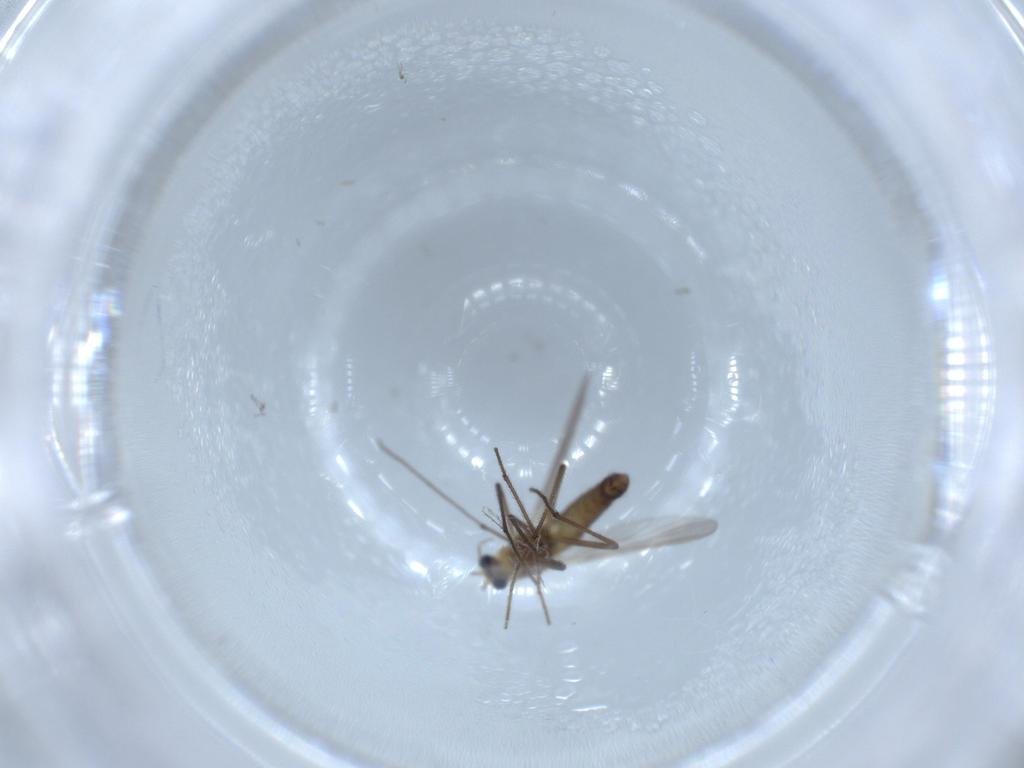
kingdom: Animalia
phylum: Arthropoda
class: Insecta
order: Diptera
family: Chironomidae
